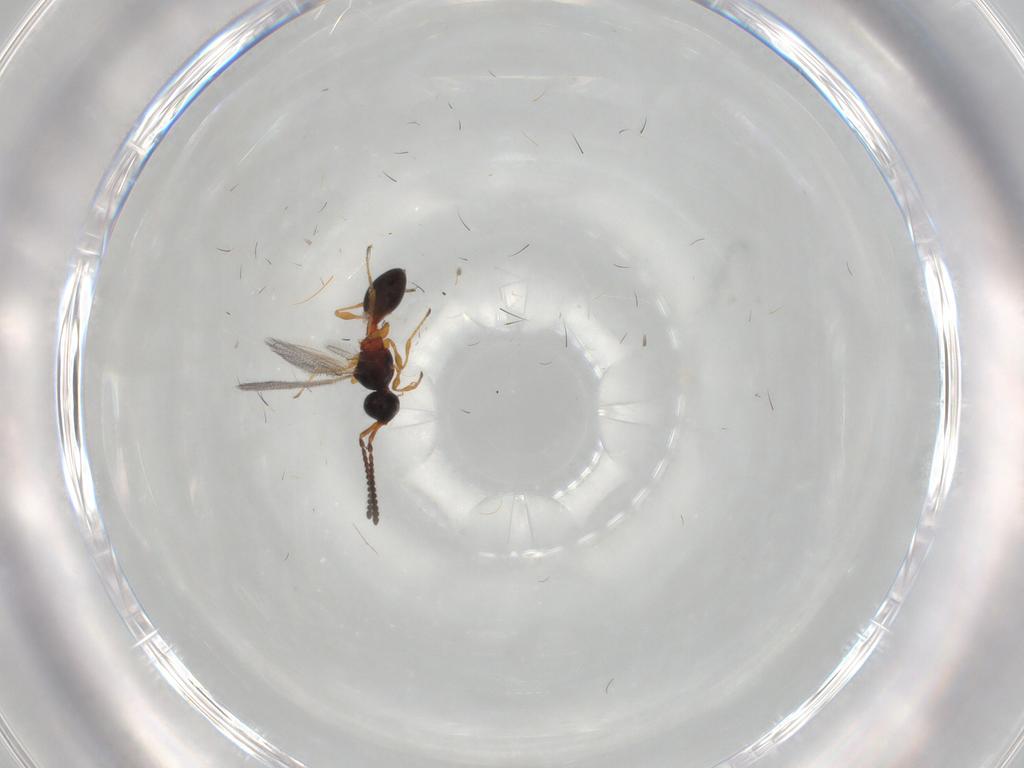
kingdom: Animalia
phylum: Arthropoda
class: Insecta
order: Hymenoptera
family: Diapriidae
